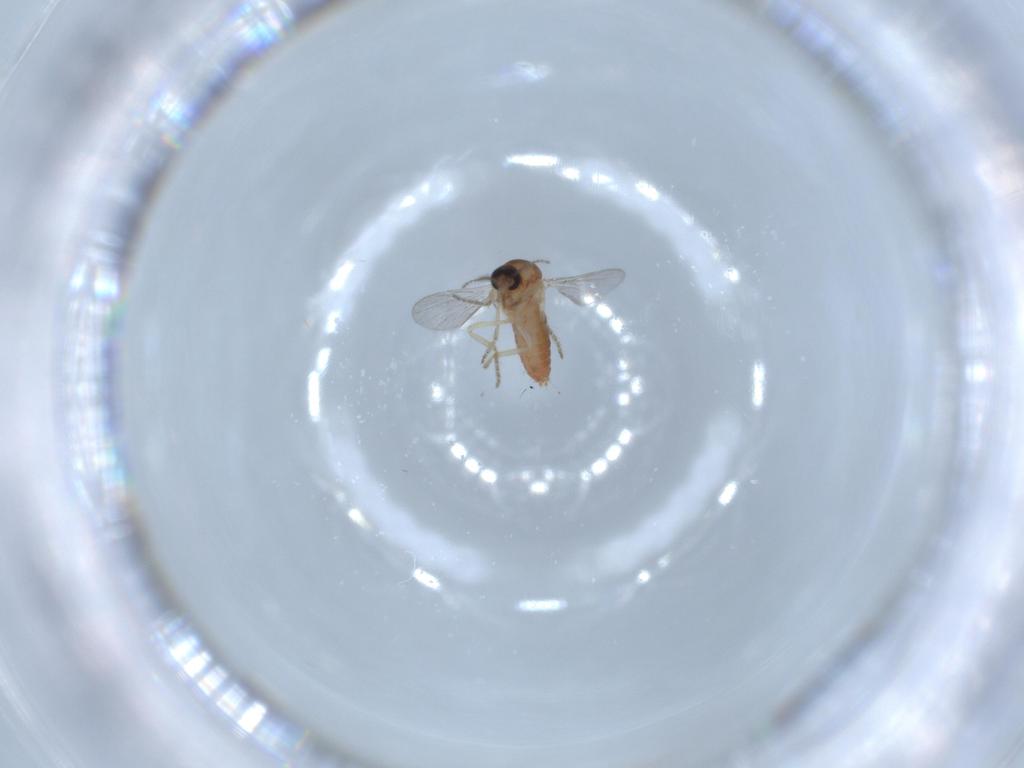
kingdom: Animalia
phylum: Arthropoda
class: Insecta
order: Diptera
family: Ceratopogonidae
